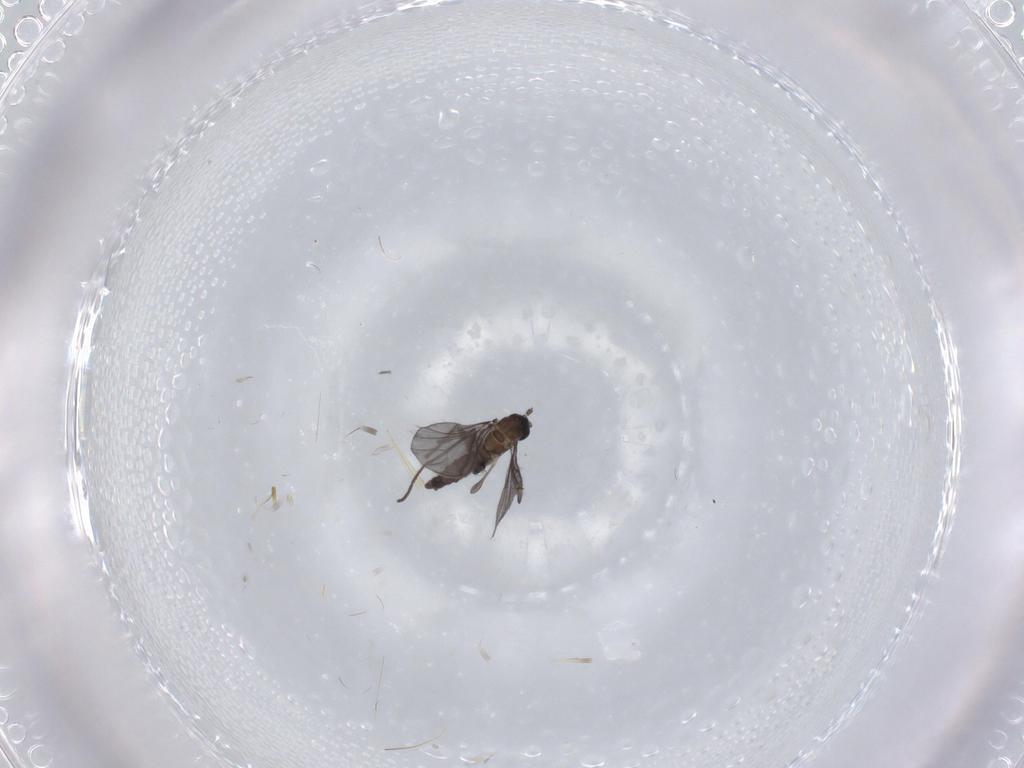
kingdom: Animalia
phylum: Arthropoda
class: Insecta
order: Diptera
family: Sciaridae
